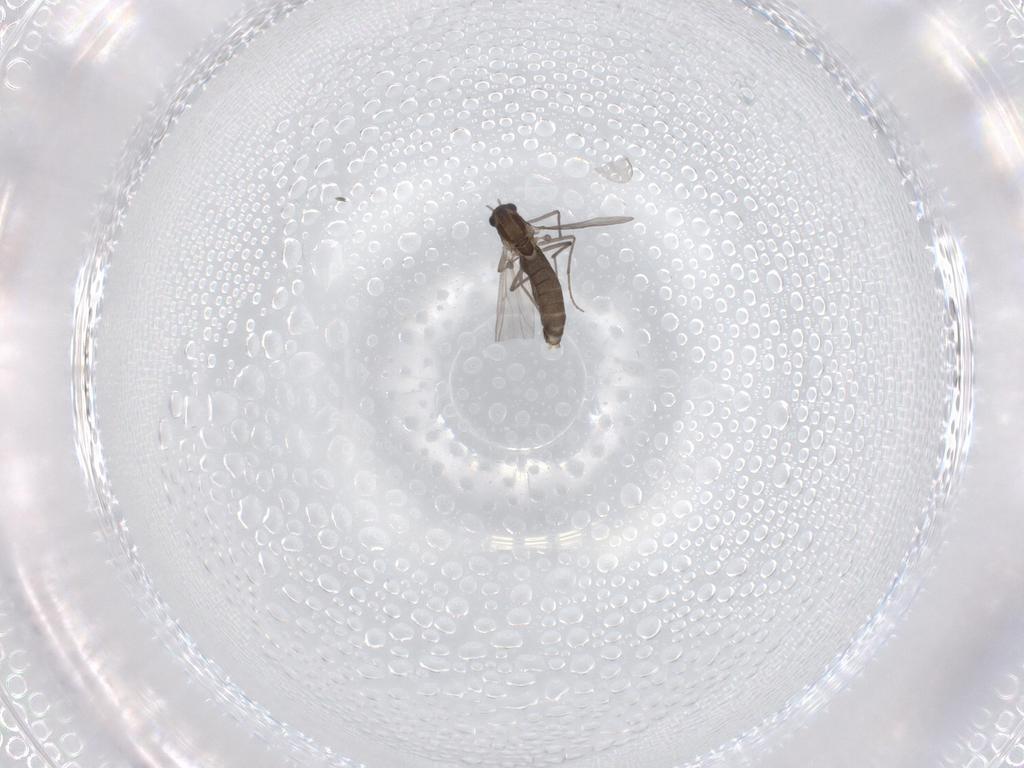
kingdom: Animalia
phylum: Arthropoda
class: Insecta
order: Diptera
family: Chironomidae
